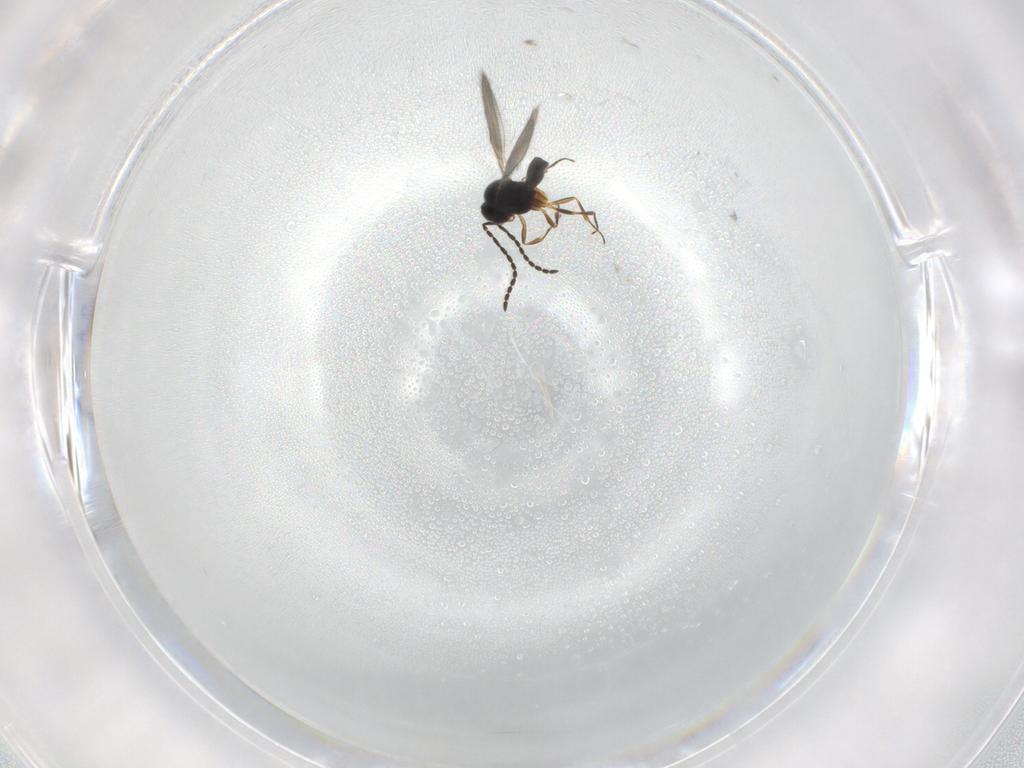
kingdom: Animalia
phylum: Arthropoda
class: Insecta
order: Hymenoptera
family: Scelionidae
